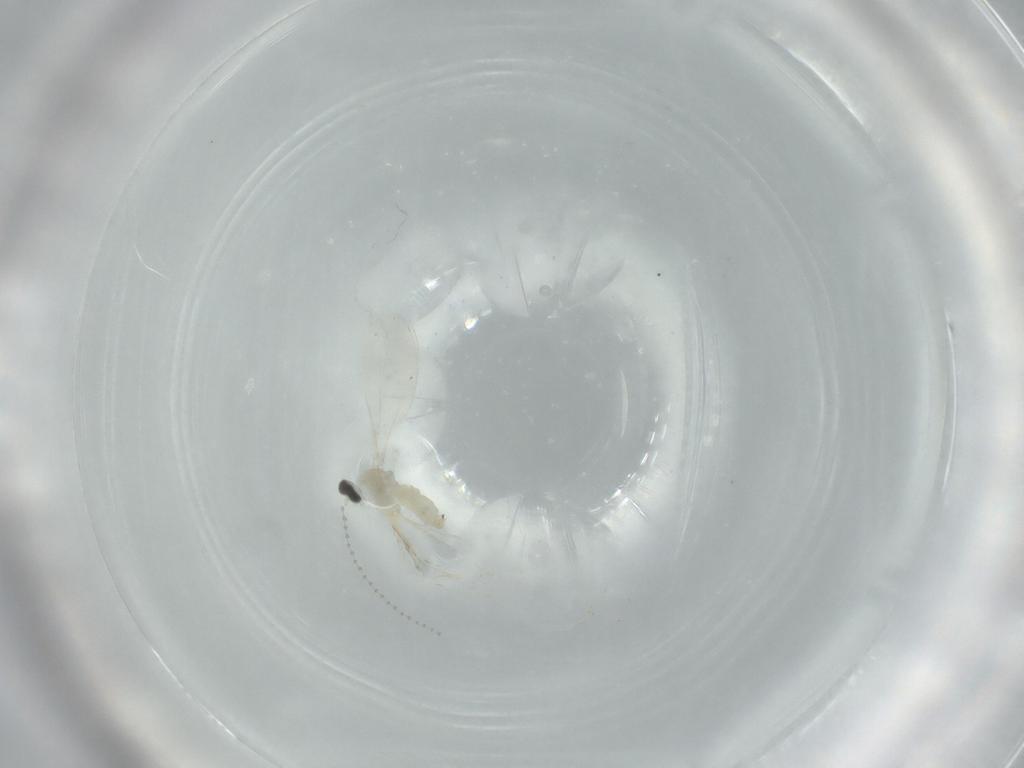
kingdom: Animalia
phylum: Arthropoda
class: Insecta
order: Diptera
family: Cecidomyiidae
